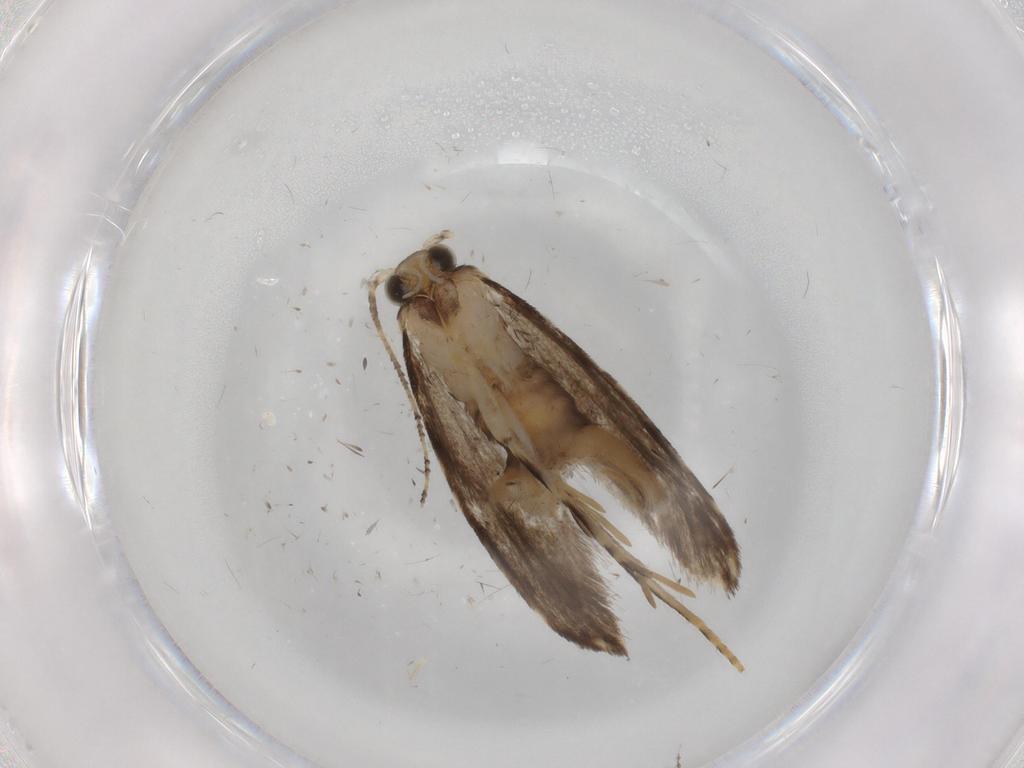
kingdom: Animalia
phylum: Arthropoda
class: Insecta
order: Lepidoptera
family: Tineidae
